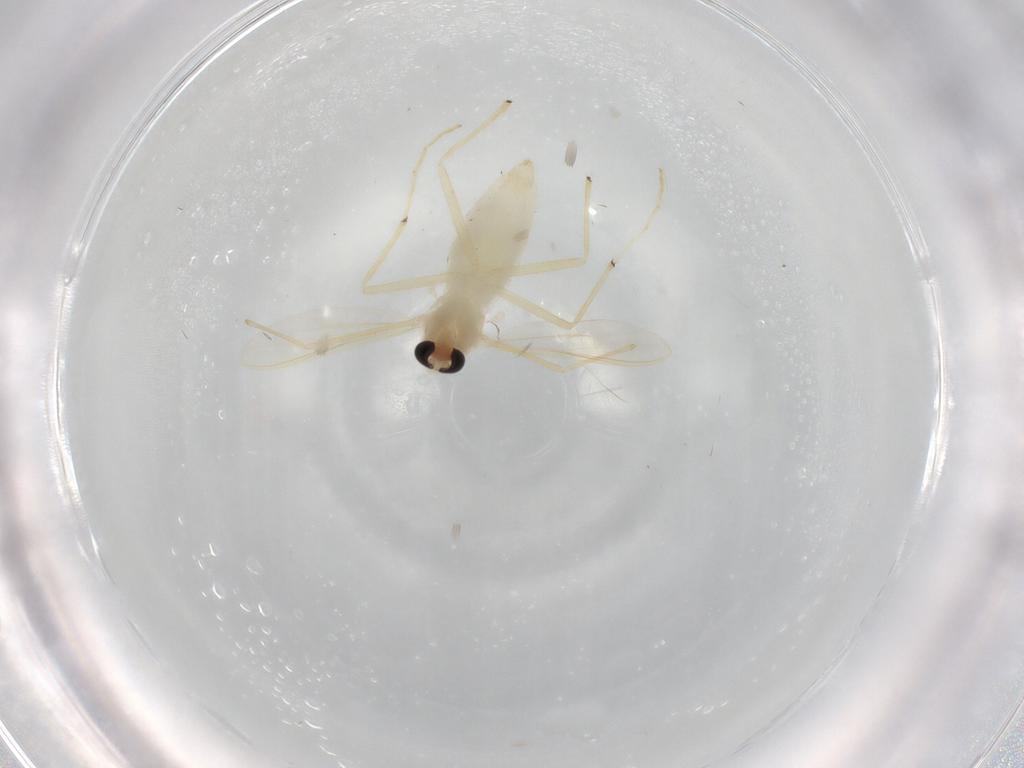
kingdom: Animalia
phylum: Arthropoda
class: Insecta
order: Diptera
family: Chironomidae
